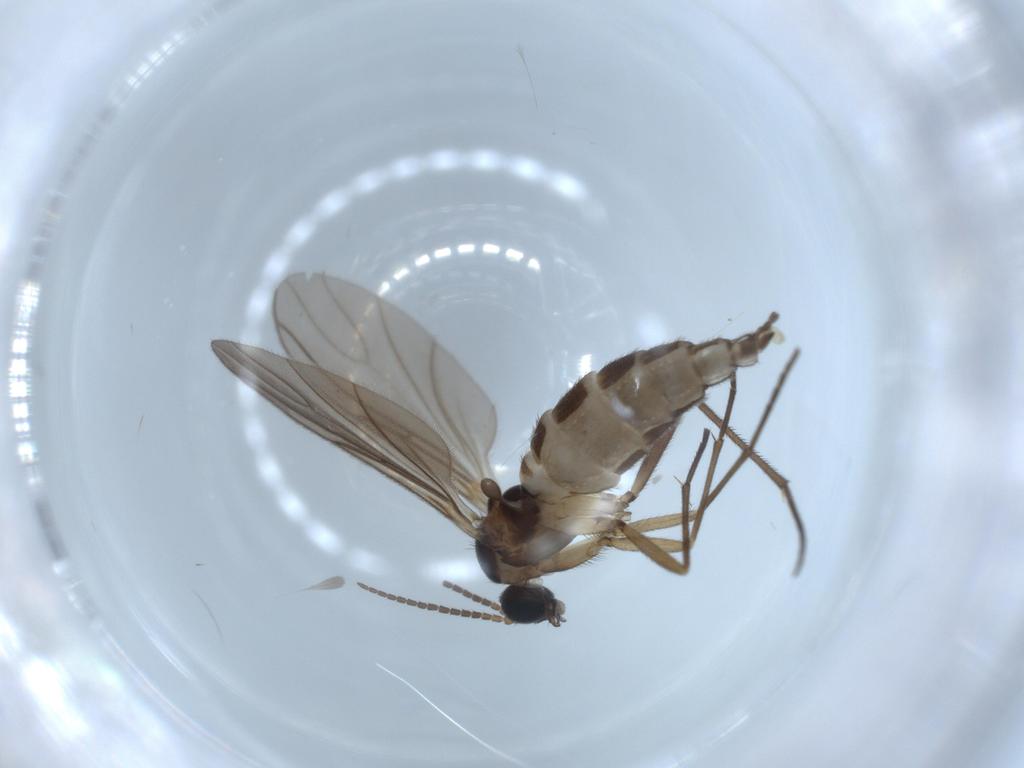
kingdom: Animalia
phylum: Arthropoda
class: Insecta
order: Diptera
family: Sciaridae
